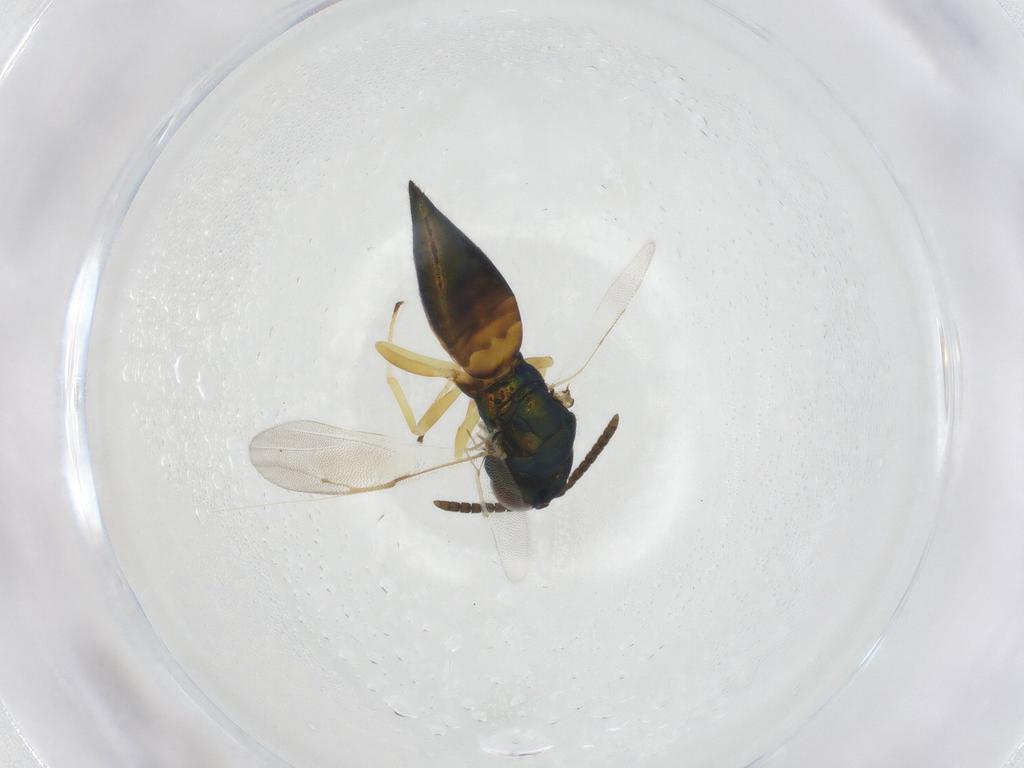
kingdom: Animalia
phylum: Arthropoda
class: Insecta
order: Hymenoptera
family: Pteromalidae
